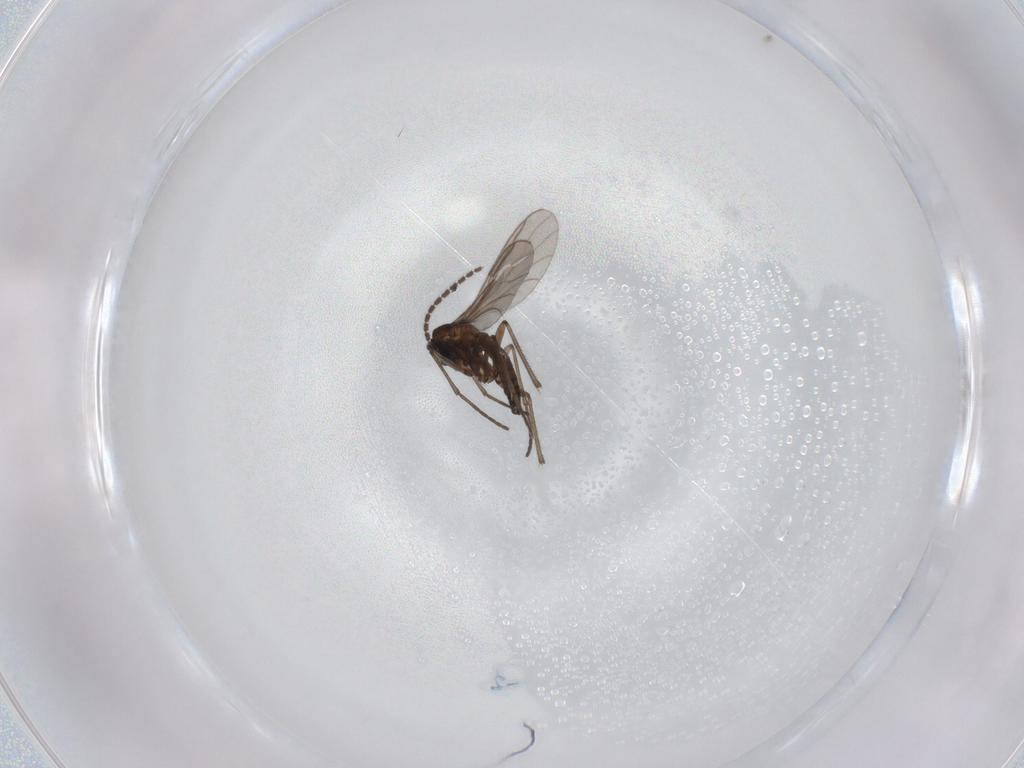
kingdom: Animalia
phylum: Arthropoda
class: Insecta
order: Diptera
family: Sciaridae
